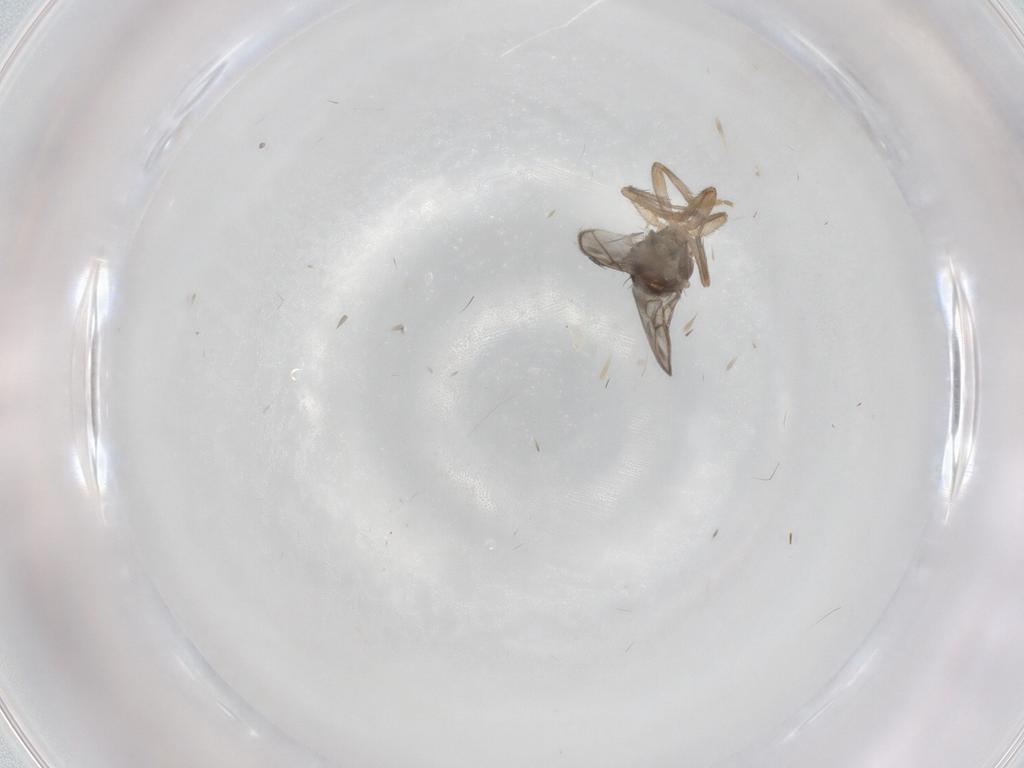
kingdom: Animalia
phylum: Arthropoda
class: Insecta
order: Diptera
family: Sphaeroceridae
